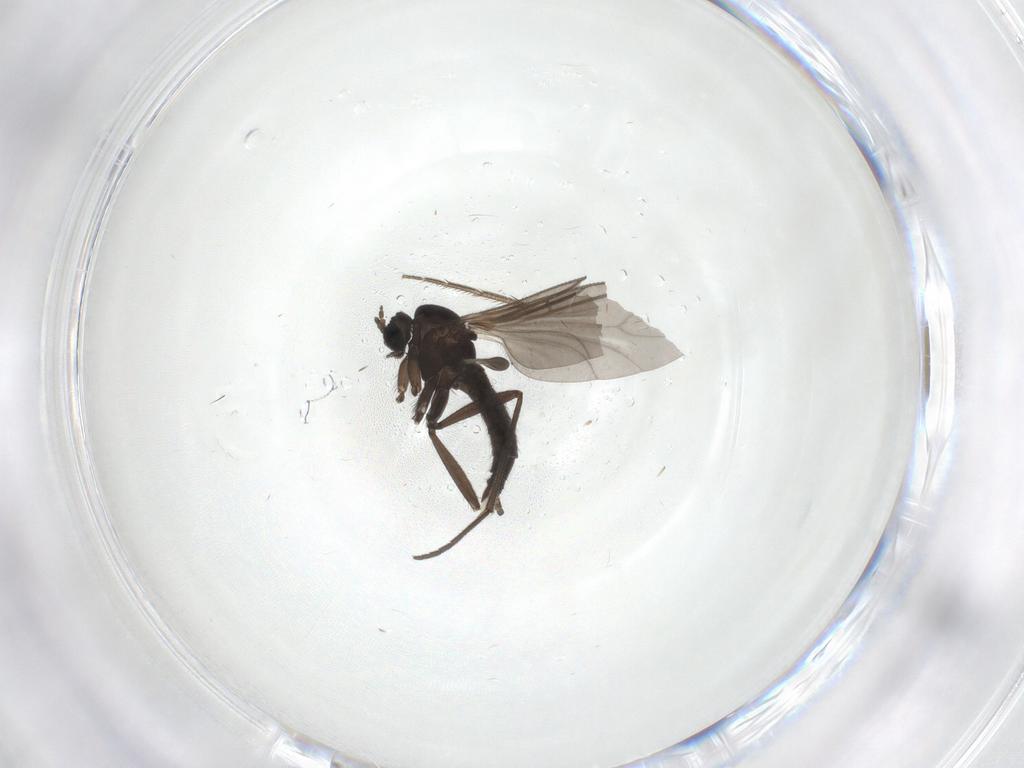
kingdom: Animalia
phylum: Arthropoda
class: Insecta
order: Diptera
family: Sciaridae
